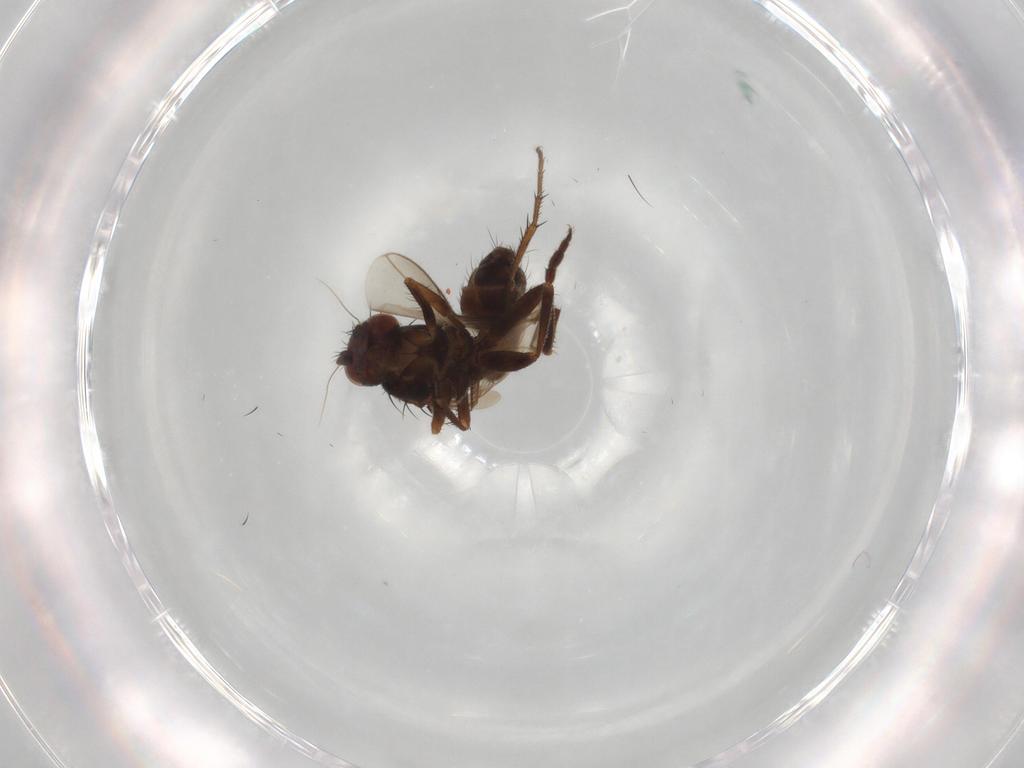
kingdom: Animalia
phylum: Arthropoda
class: Insecta
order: Diptera
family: Sphaeroceridae
